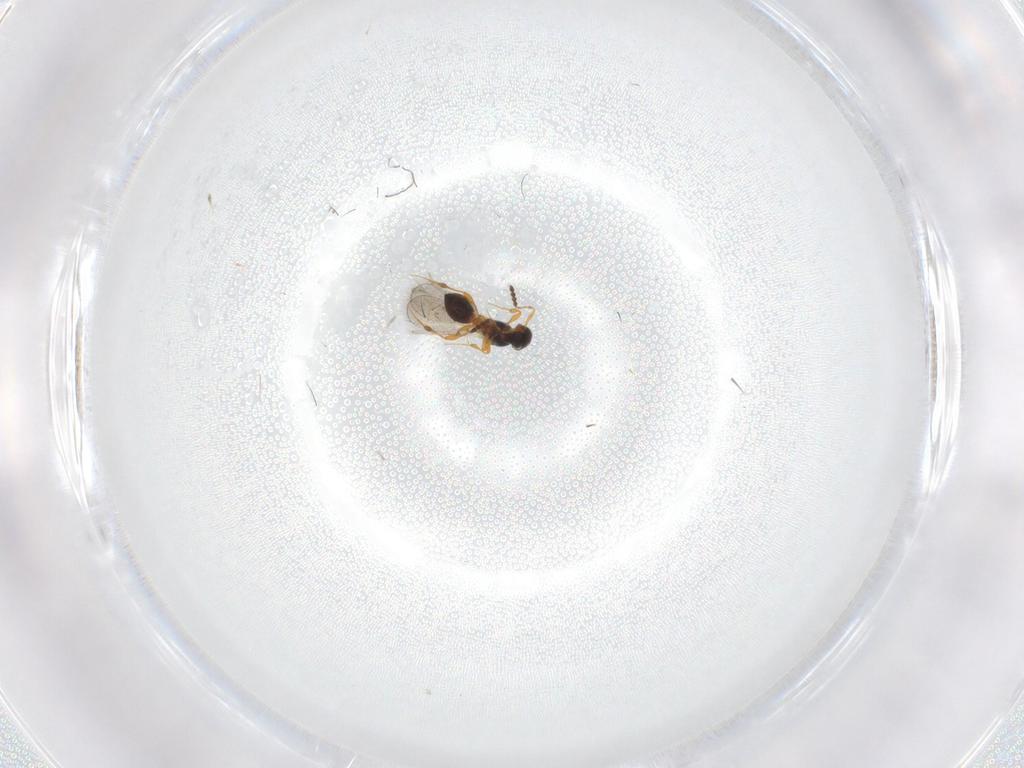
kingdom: Animalia
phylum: Arthropoda
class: Insecta
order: Hymenoptera
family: Platygastridae
